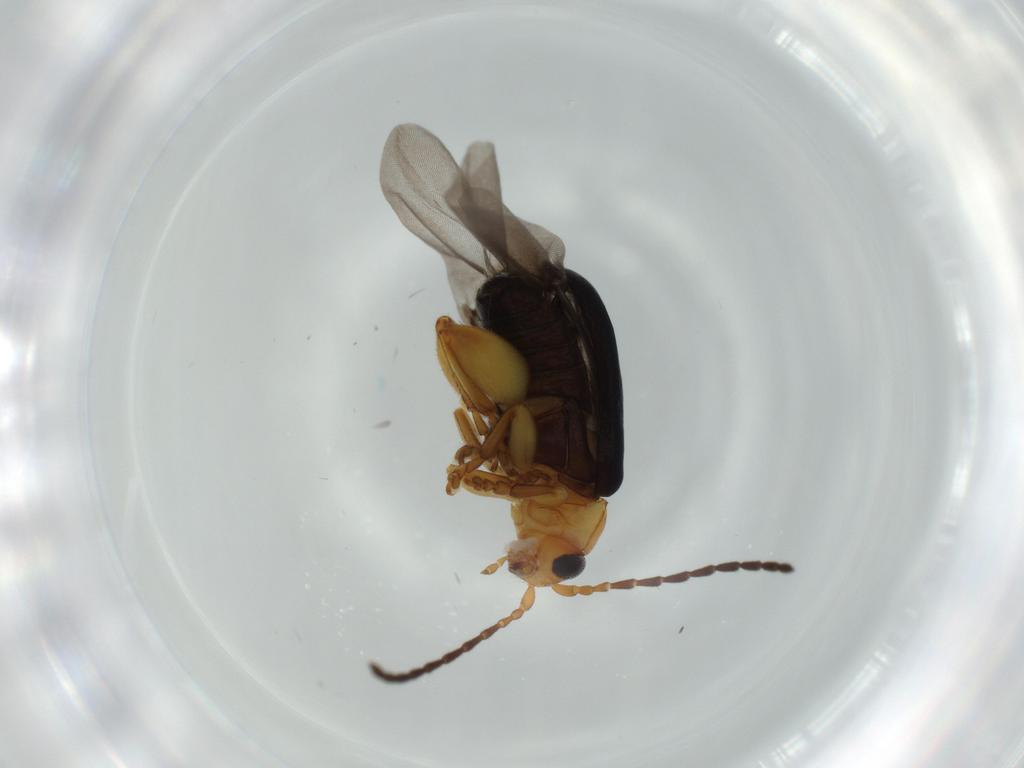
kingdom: Animalia
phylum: Arthropoda
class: Insecta
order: Coleoptera
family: Chrysomelidae
